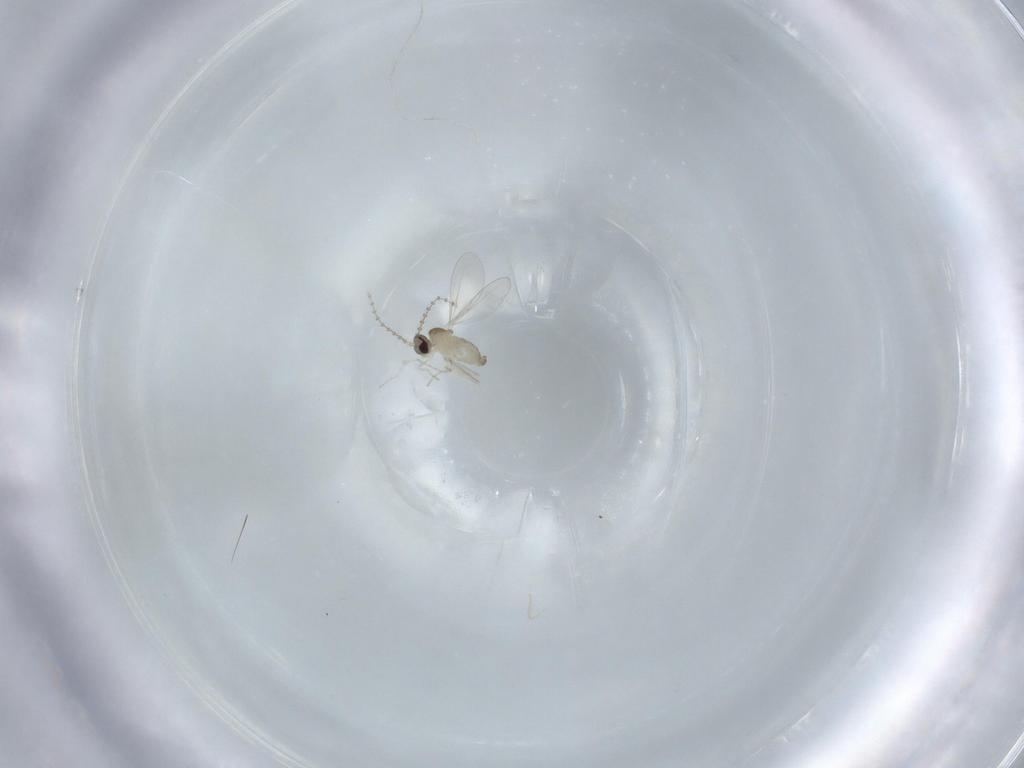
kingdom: Animalia
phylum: Arthropoda
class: Insecta
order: Diptera
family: Cecidomyiidae
